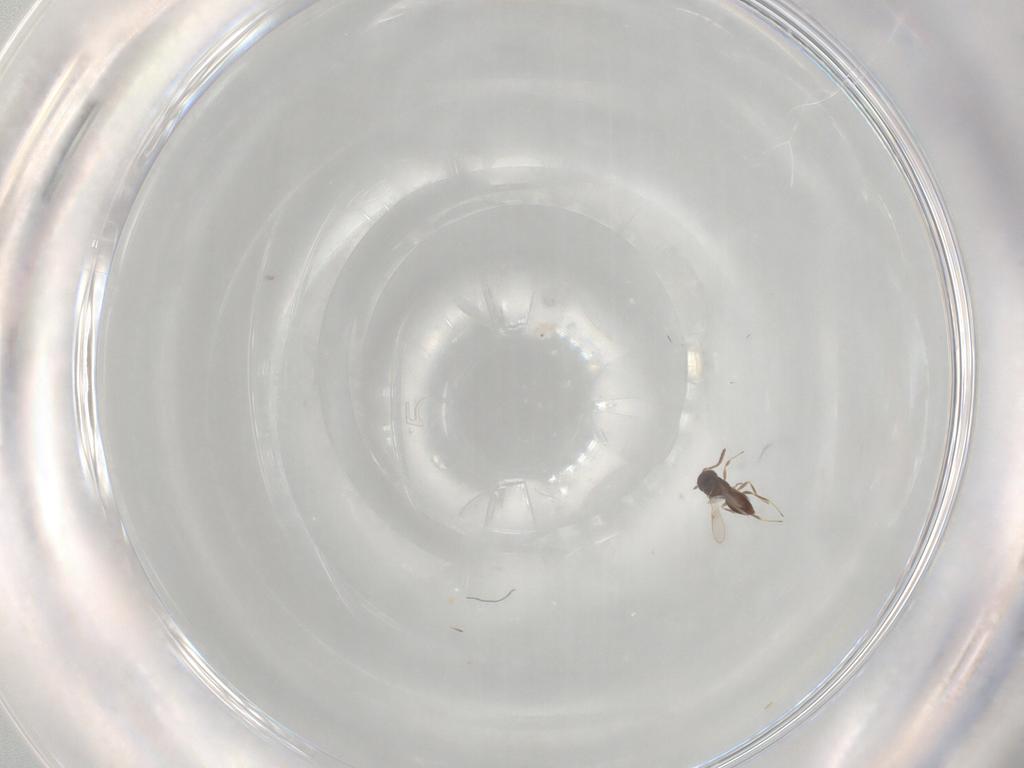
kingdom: Animalia
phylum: Arthropoda
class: Insecta
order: Hymenoptera
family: Scelionidae
